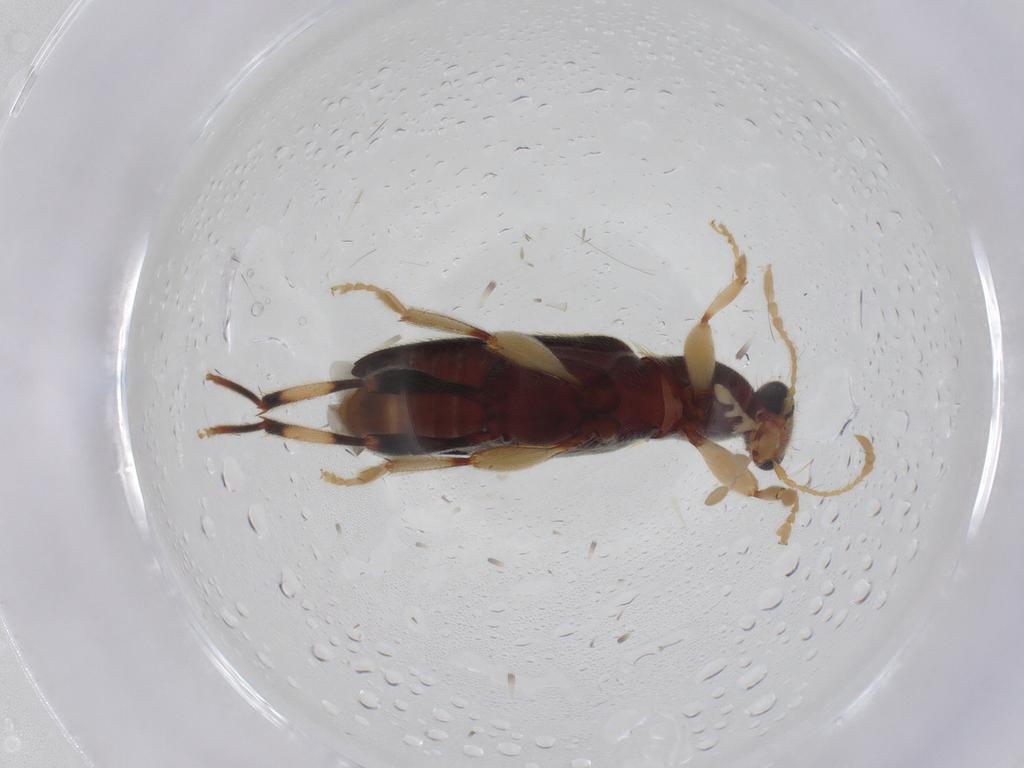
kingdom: Animalia
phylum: Arthropoda
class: Insecta
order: Coleoptera
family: Anthicidae
